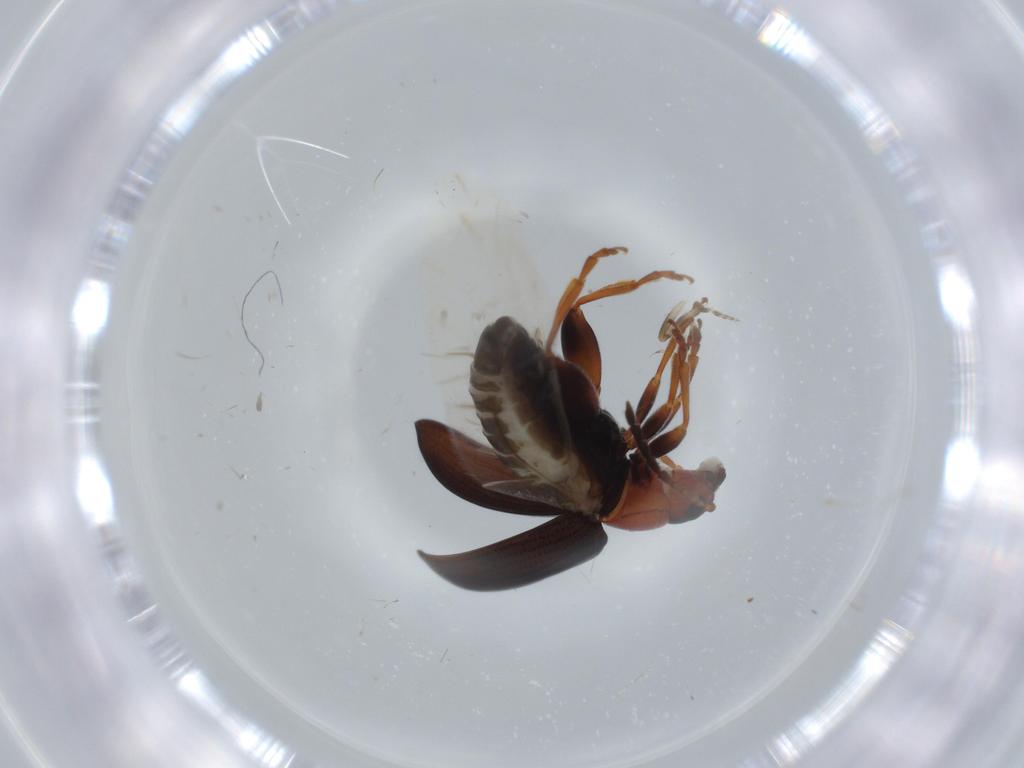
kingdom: Animalia
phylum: Arthropoda
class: Insecta
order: Coleoptera
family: Chrysomelidae
